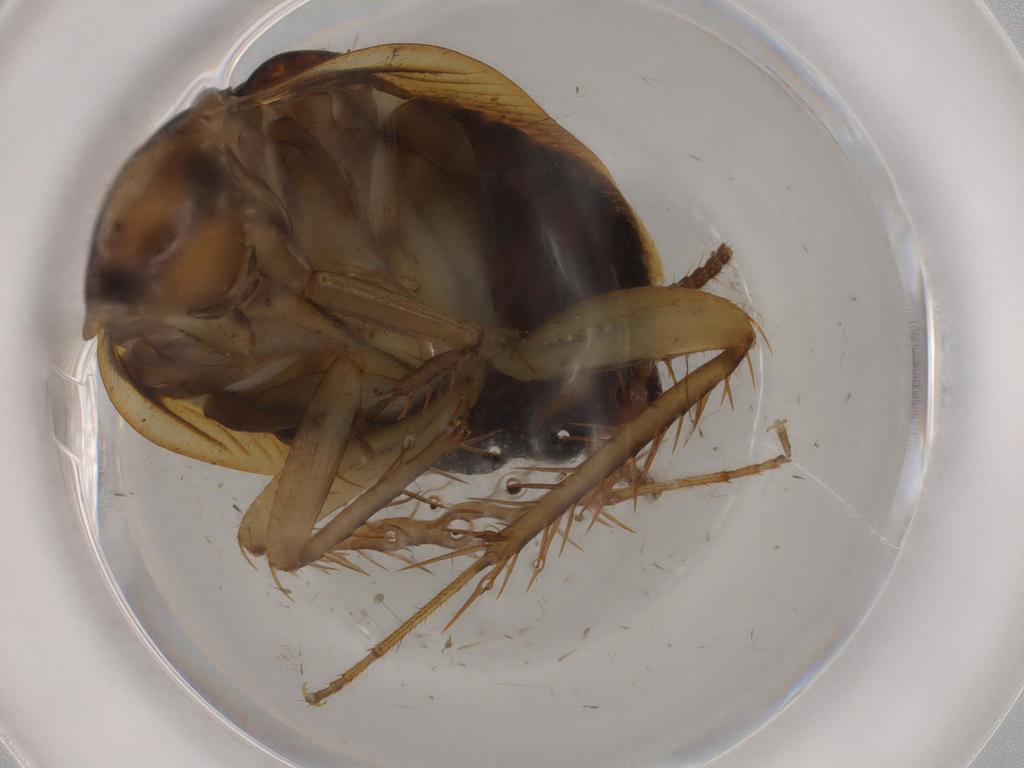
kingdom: Animalia
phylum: Arthropoda
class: Insecta
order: Blattodea
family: Ectobiidae
